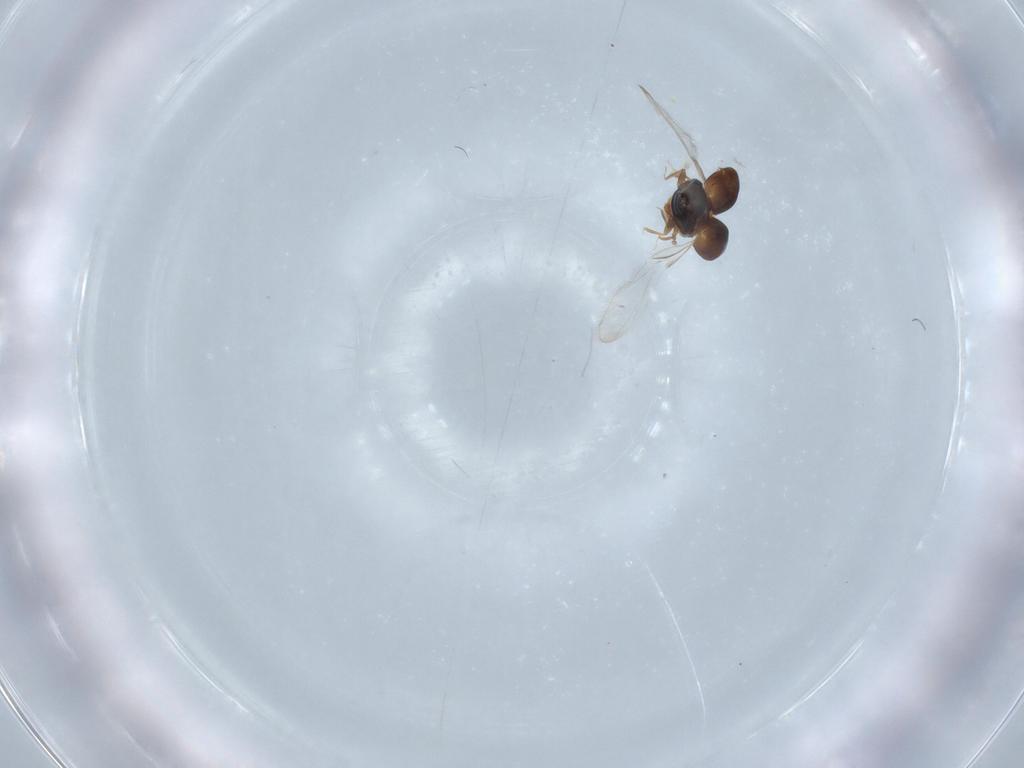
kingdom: Animalia
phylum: Arthropoda
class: Insecta
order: Coleoptera
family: Corylophidae
